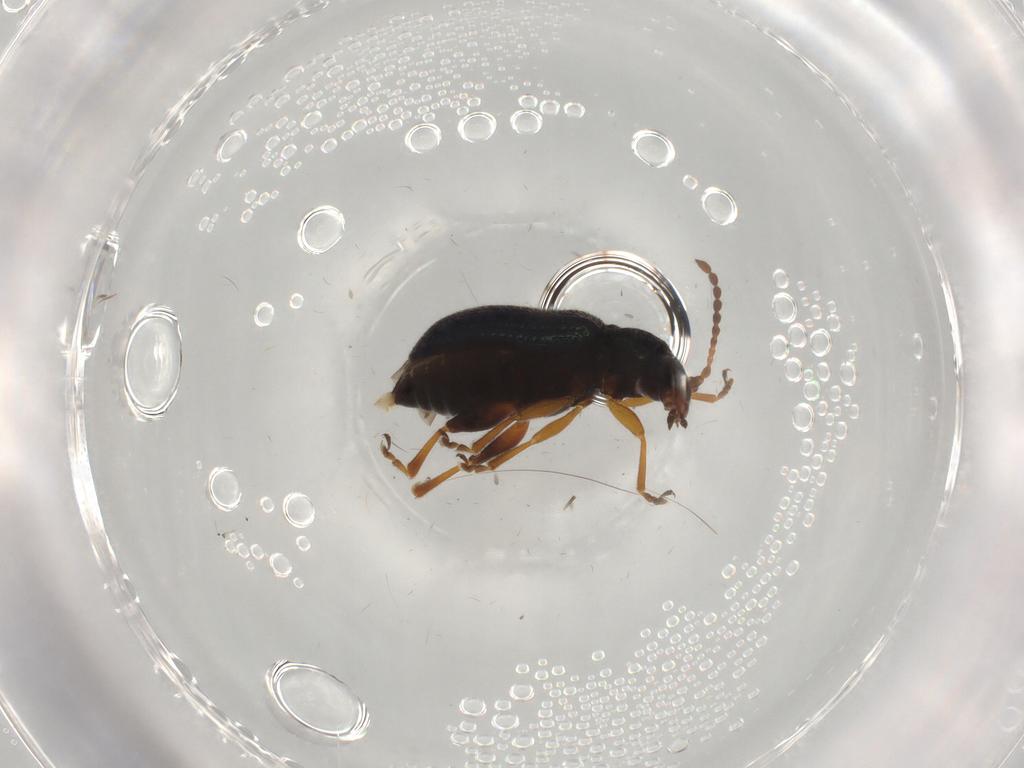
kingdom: Animalia
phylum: Arthropoda
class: Insecta
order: Coleoptera
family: Chrysomelidae
